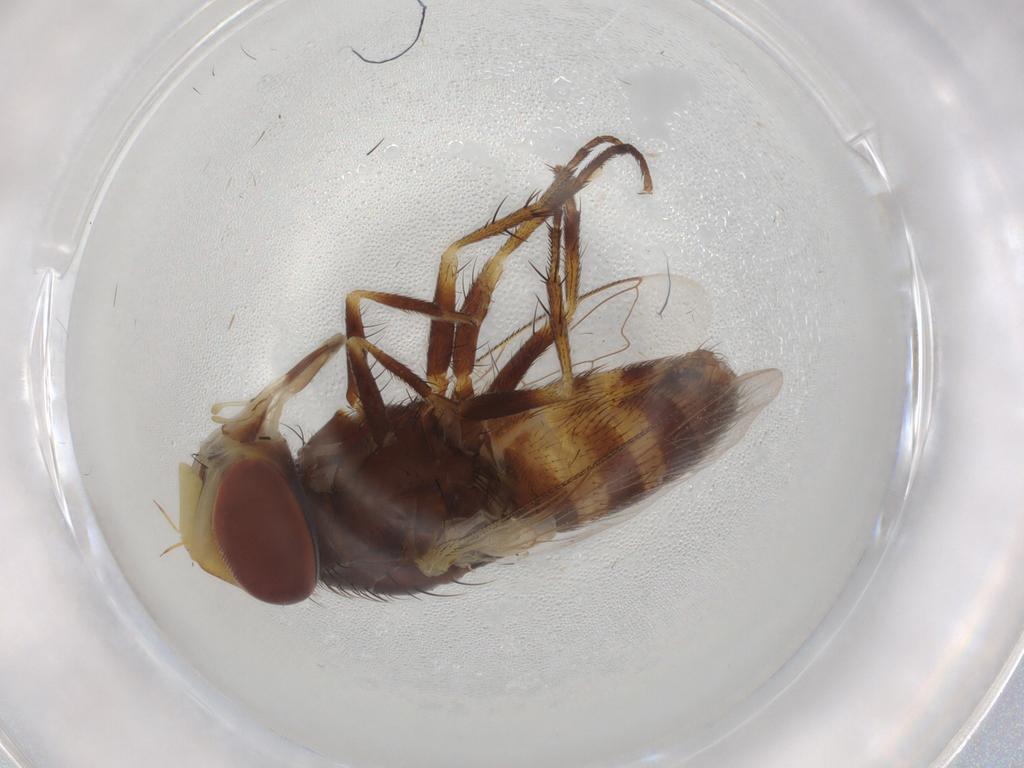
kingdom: Animalia
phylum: Arthropoda
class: Insecta
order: Diptera
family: Sarcophagidae
